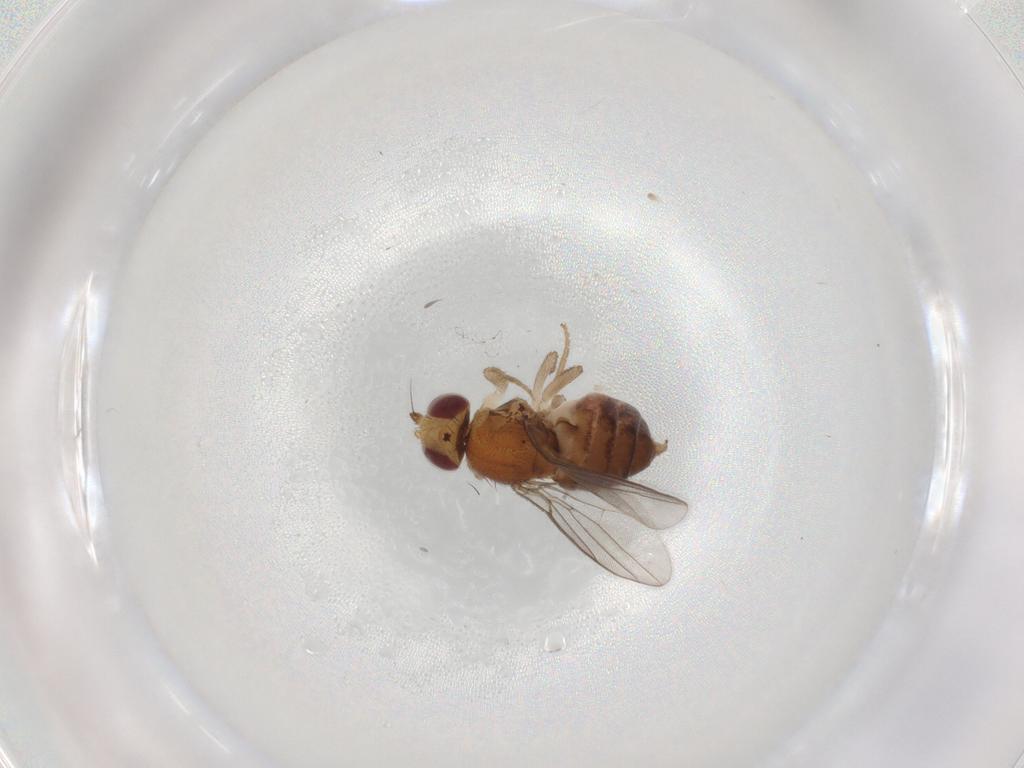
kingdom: Animalia
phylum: Arthropoda
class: Insecta
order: Diptera
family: Chloropidae
